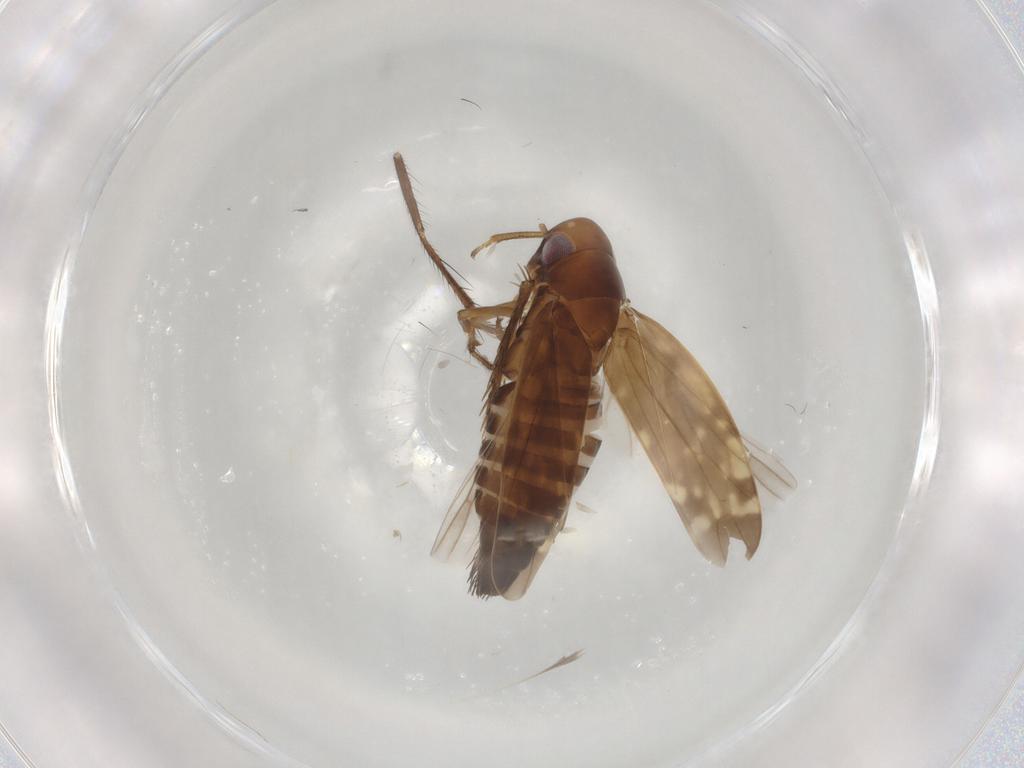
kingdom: Animalia
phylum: Arthropoda
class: Insecta
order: Hemiptera
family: Cicadellidae
